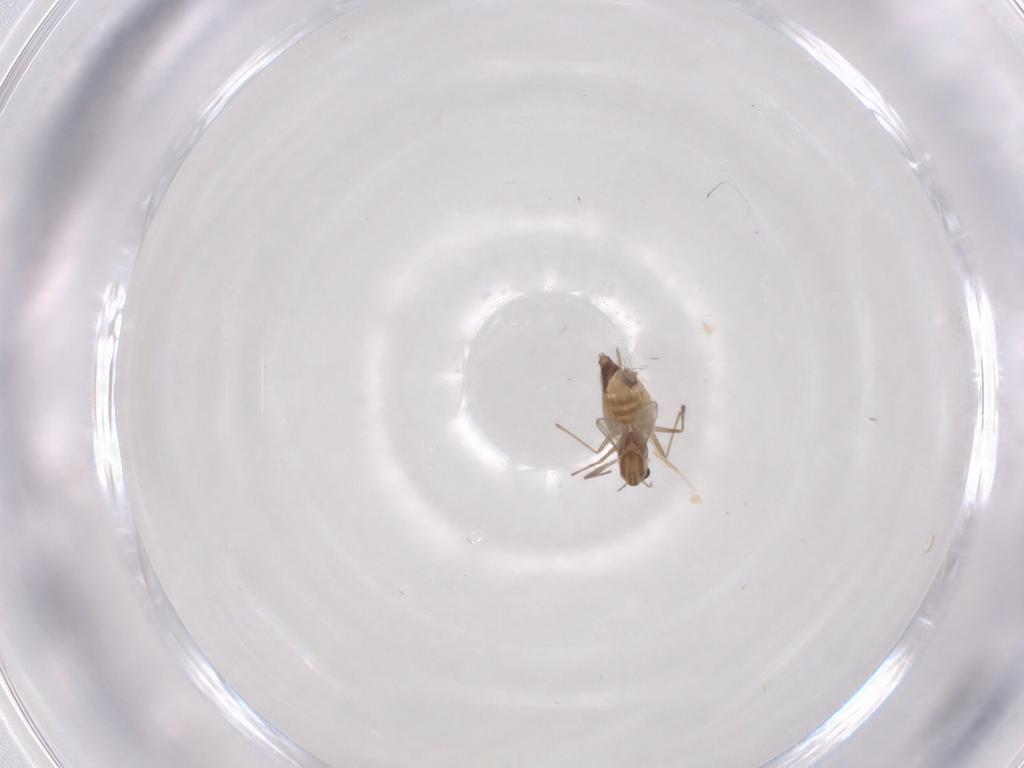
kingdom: Animalia
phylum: Arthropoda
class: Insecta
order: Diptera
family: Chironomidae
